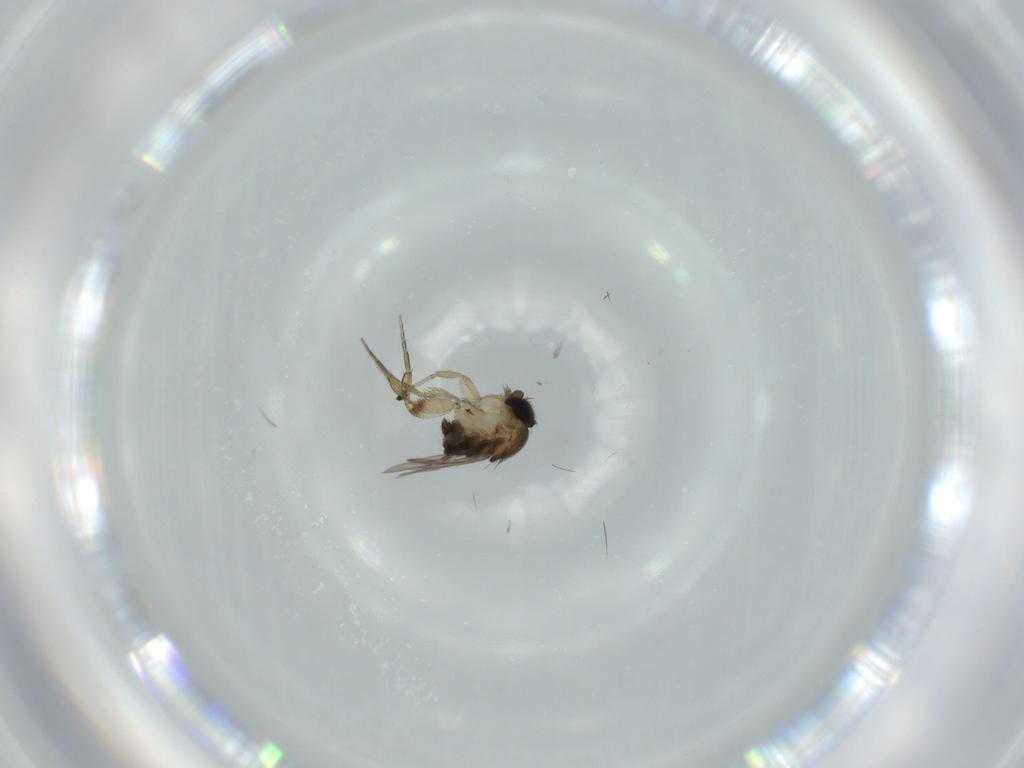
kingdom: Animalia
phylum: Arthropoda
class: Insecta
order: Diptera
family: Phoridae
